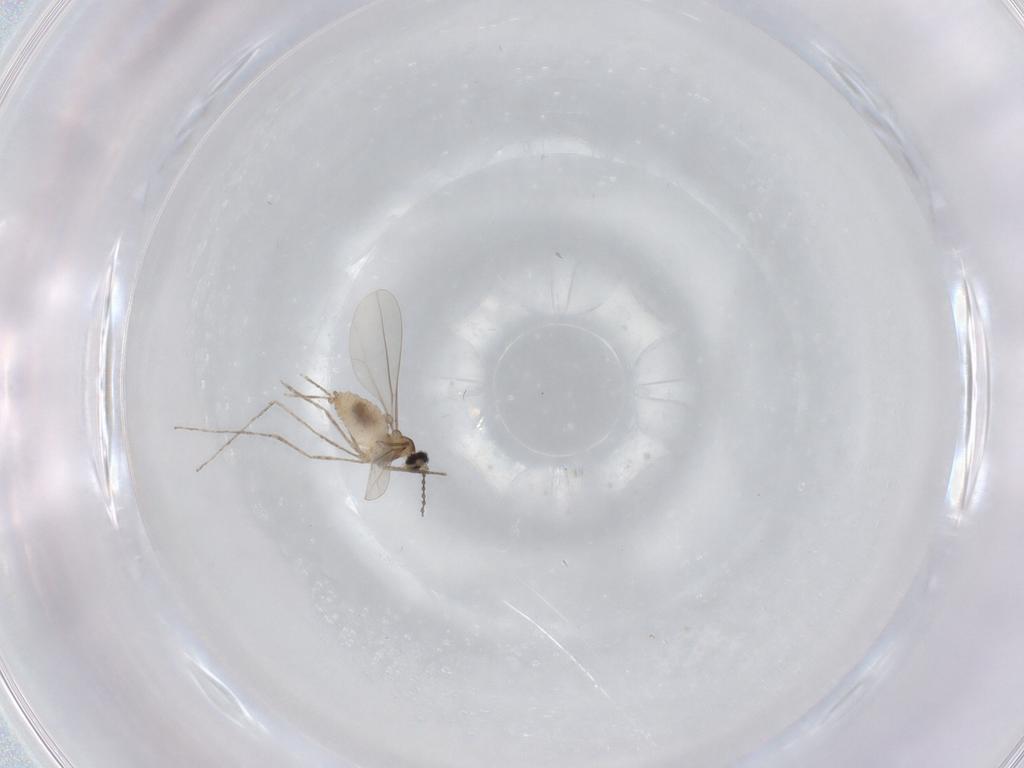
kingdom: Animalia
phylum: Arthropoda
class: Insecta
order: Diptera
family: Cecidomyiidae
